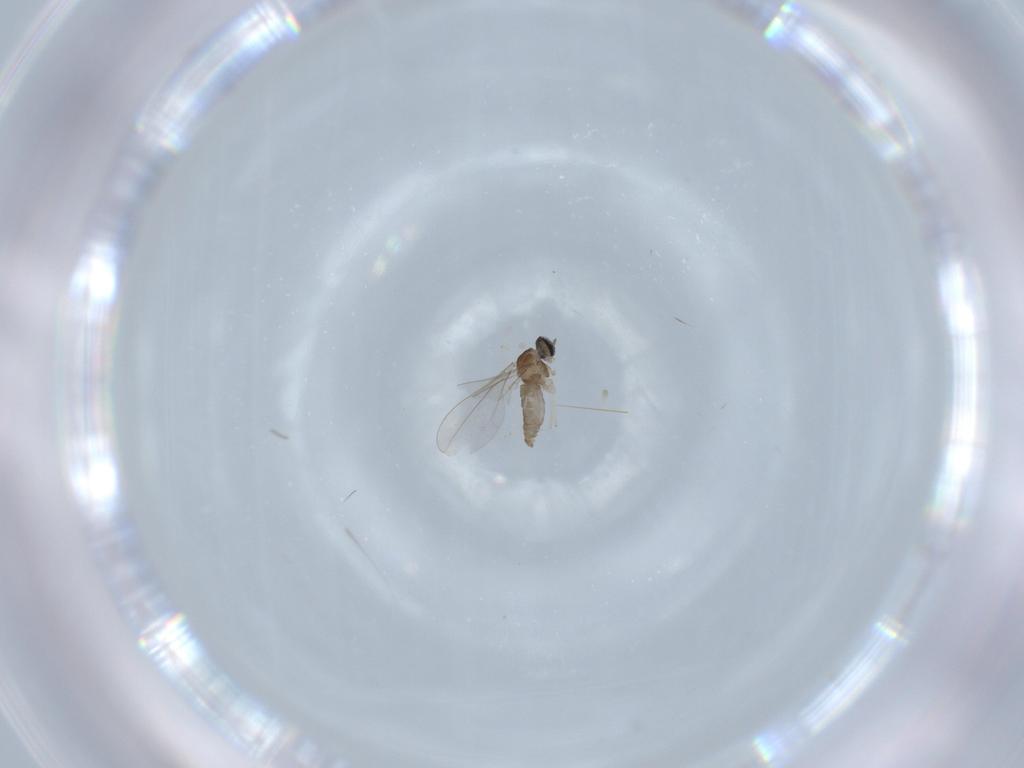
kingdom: Animalia
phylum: Arthropoda
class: Insecta
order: Diptera
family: Cecidomyiidae
